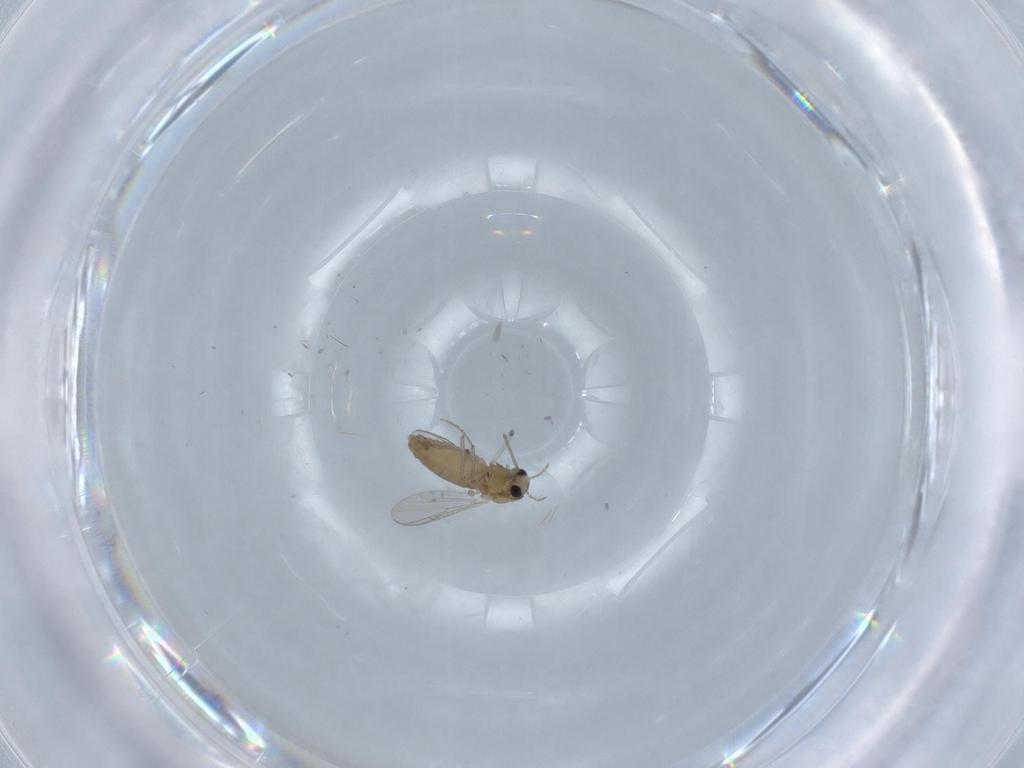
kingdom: Animalia
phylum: Arthropoda
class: Insecta
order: Diptera
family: Chironomidae
